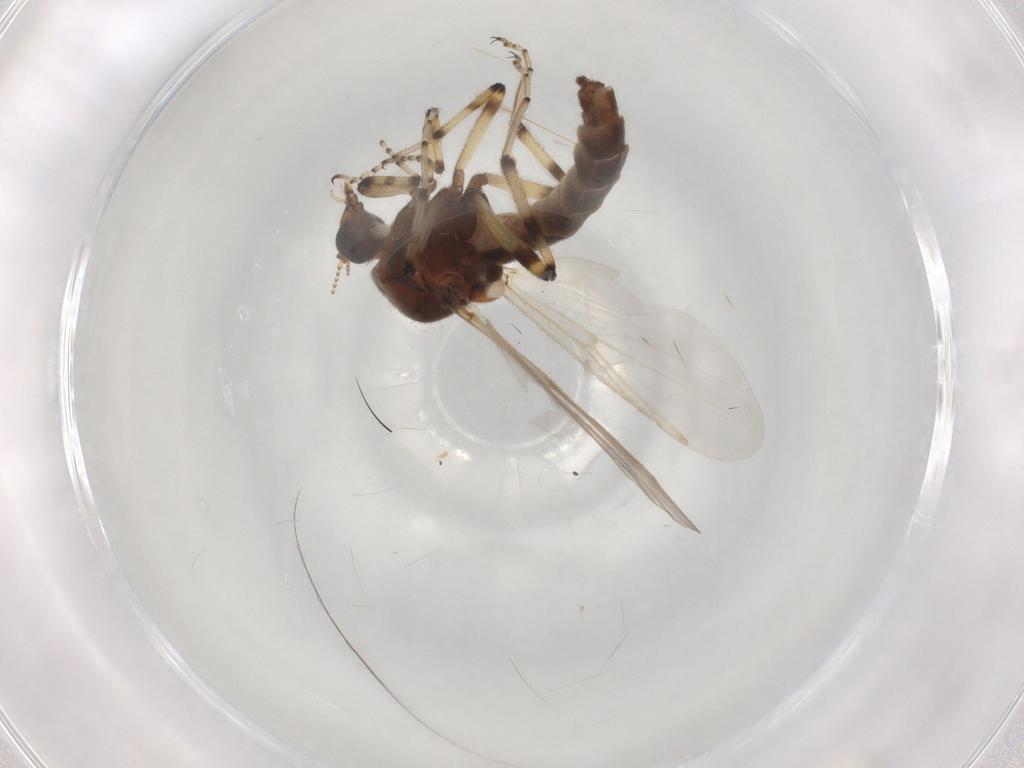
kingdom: Animalia
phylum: Arthropoda
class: Insecta
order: Diptera
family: Ceratopogonidae
